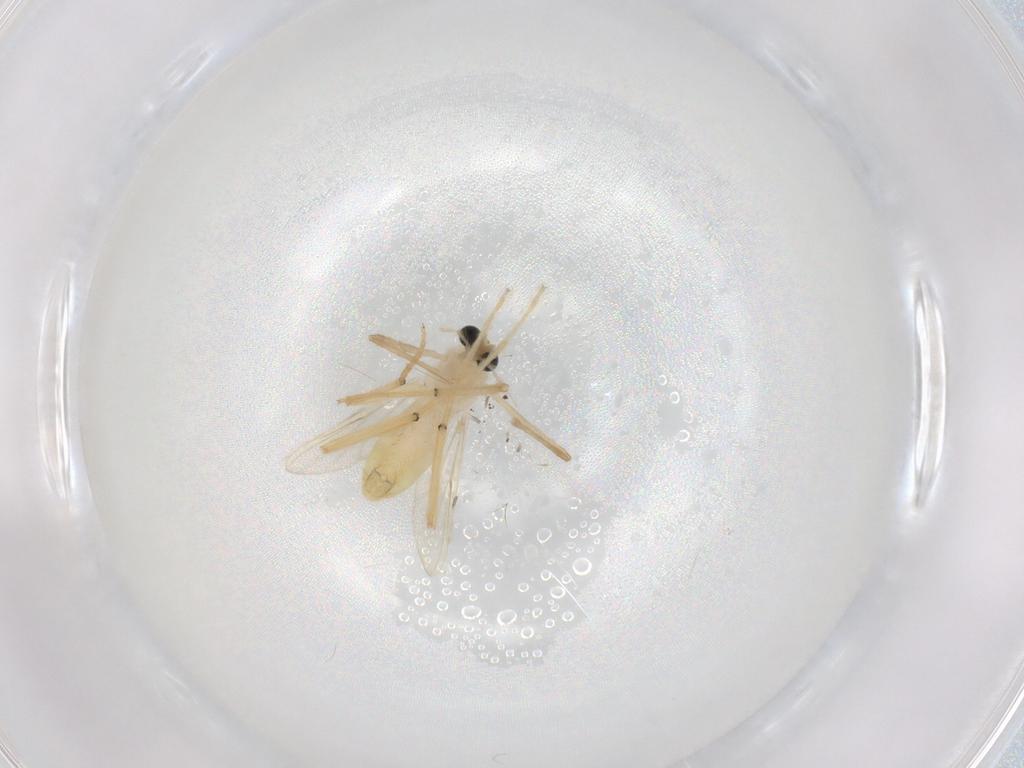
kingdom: Animalia
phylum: Arthropoda
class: Insecta
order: Diptera
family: Chironomidae
